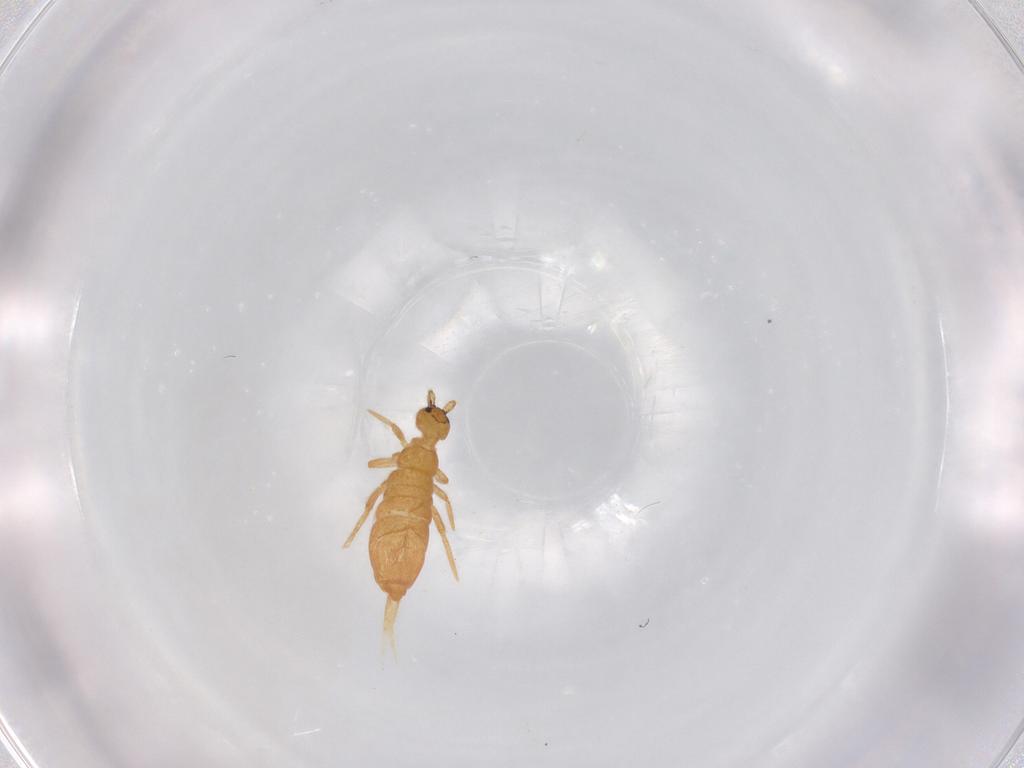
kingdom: Animalia
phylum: Arthropoda
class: Collembola
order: Entomobryomorpha
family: Entomobryidae
